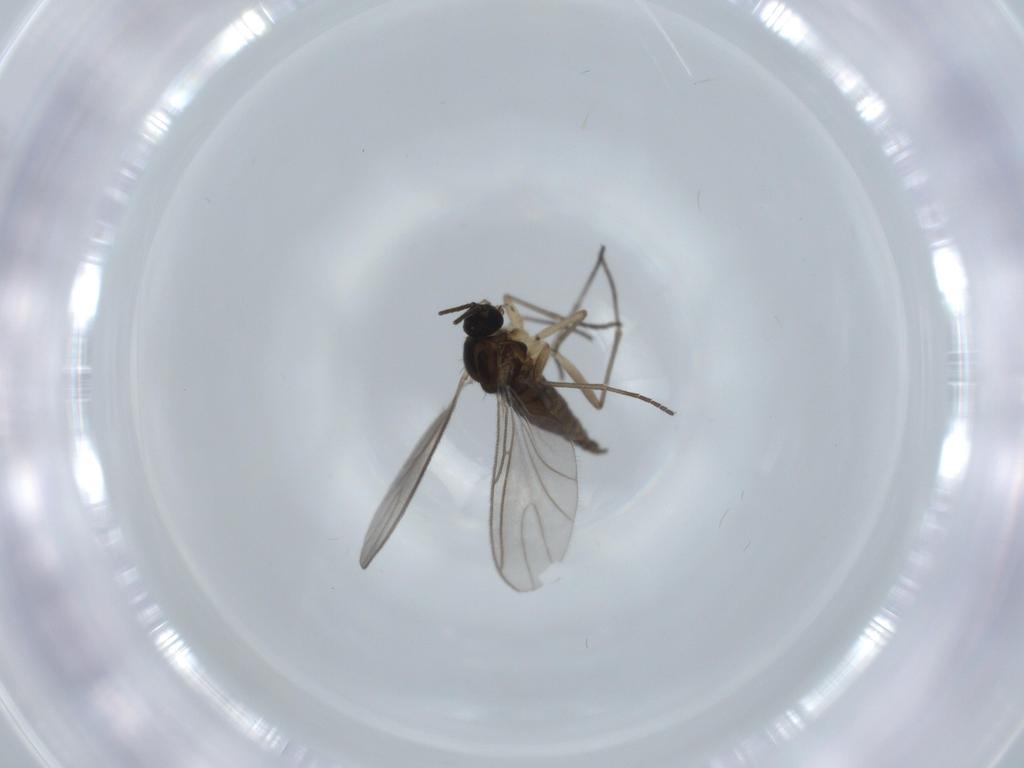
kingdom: Animalia
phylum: Arthropoda
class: Insecta
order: Diptera
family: Sciaridae
